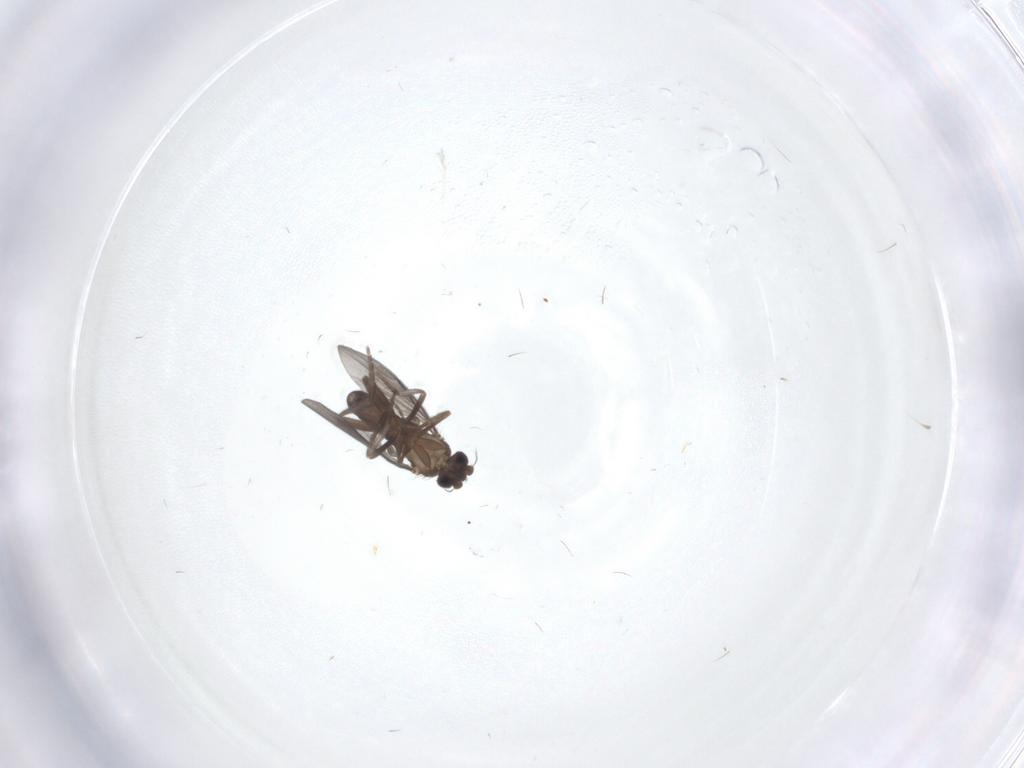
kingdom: Animalia
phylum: Arthropoda
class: Insecta
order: Diptera
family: Phoridae
